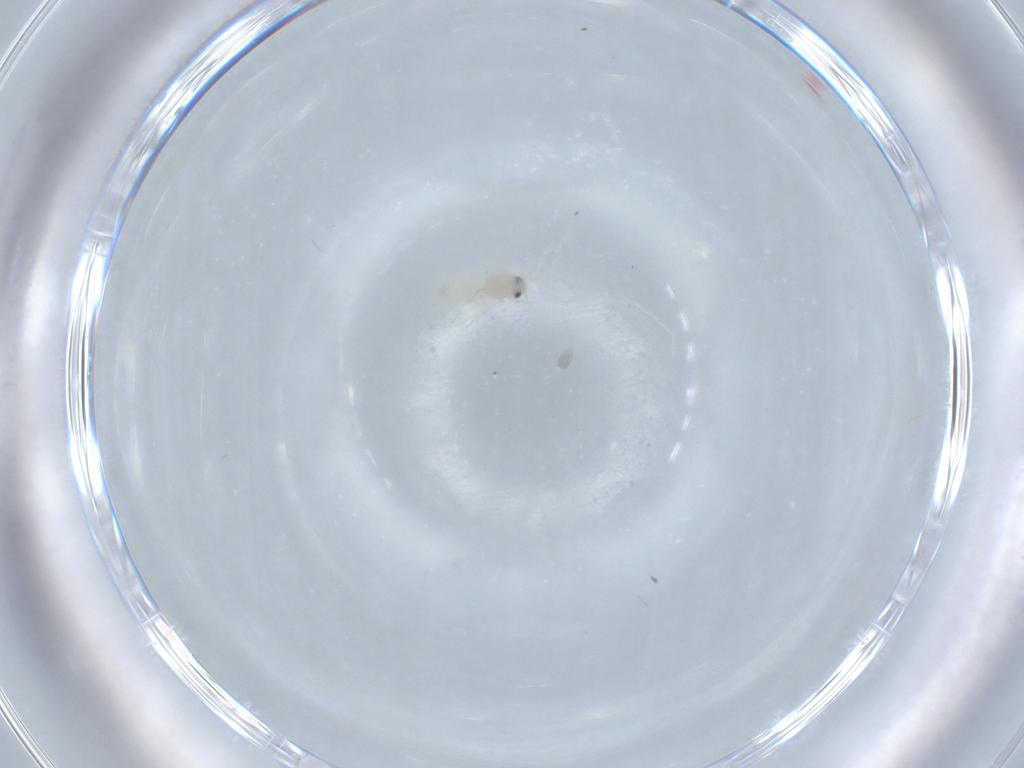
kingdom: Animalia
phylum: Arthropoda
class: Insecta
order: Hemiptera
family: Aleyrodidae
